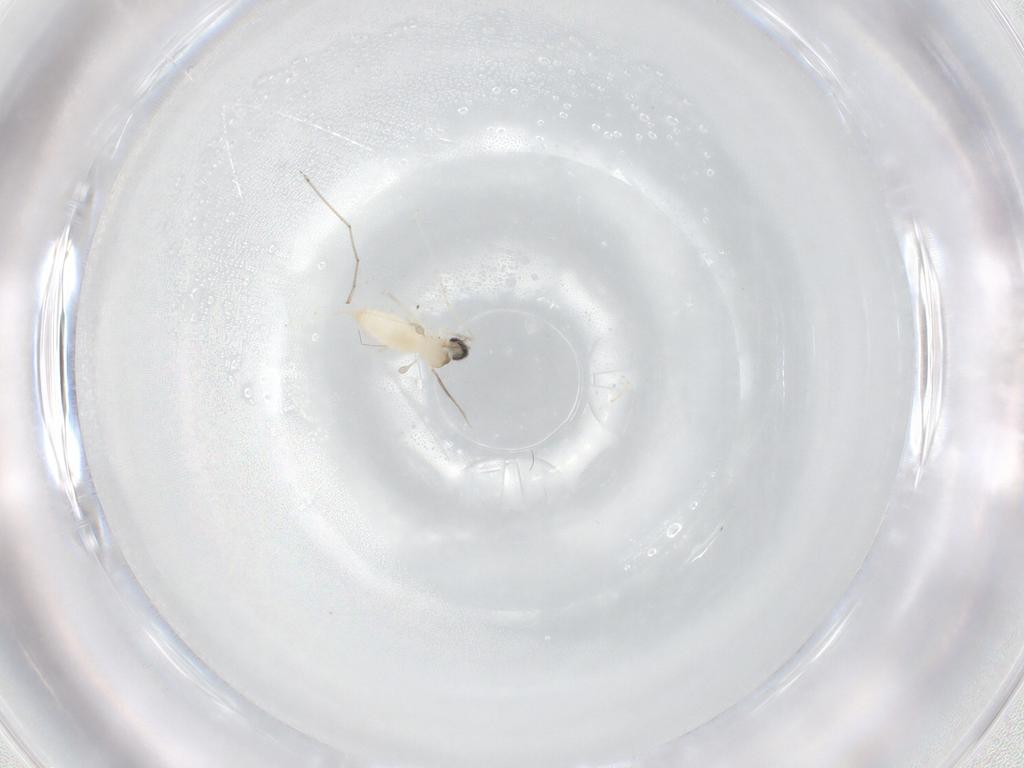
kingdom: Animalia
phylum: Arthropoda
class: Insecta
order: Diptera
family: Cecidomyiidae
